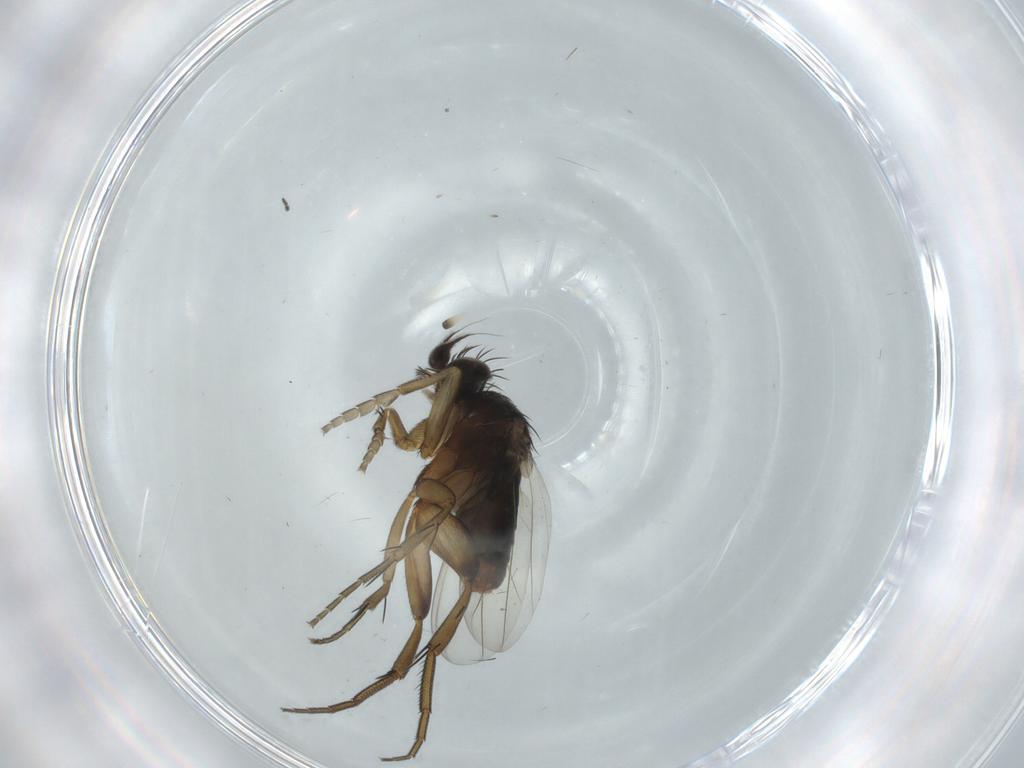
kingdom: Animalia
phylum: Arthropoda
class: Insecta
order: Diptera
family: Phoridae
